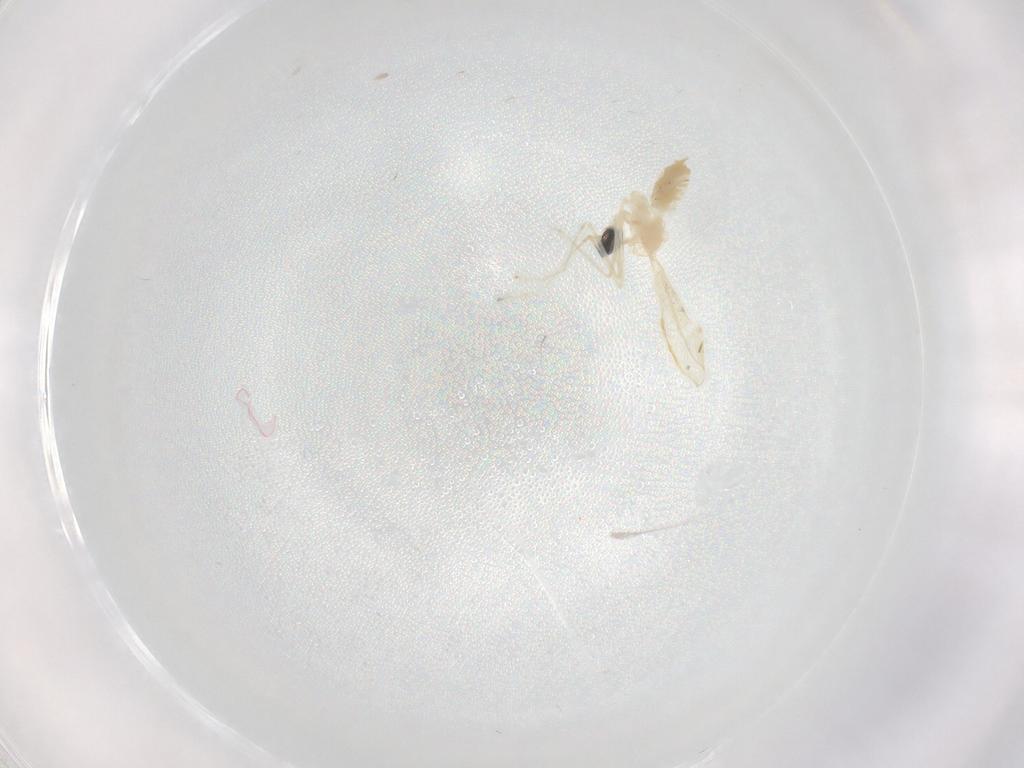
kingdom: Animalia
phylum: Arthropoda
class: Insecta
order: Diptera
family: Cecidomyiidae
